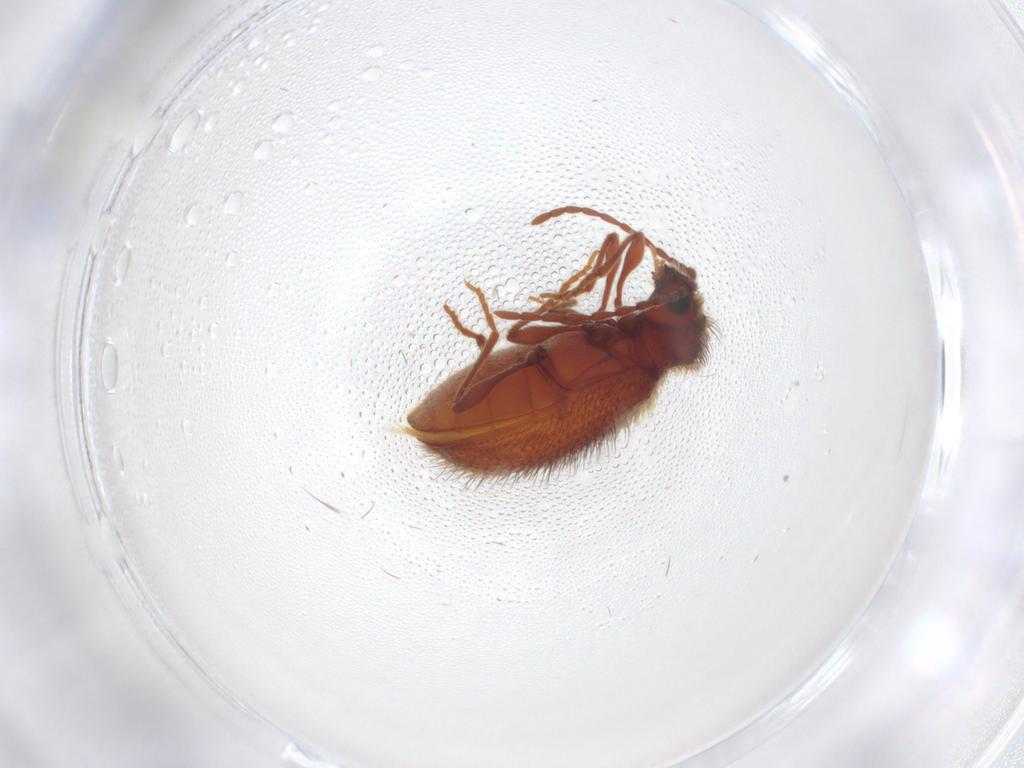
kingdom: Animalia
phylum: Arthropoda
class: Insecta
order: Coleoptera
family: Ptinidae
